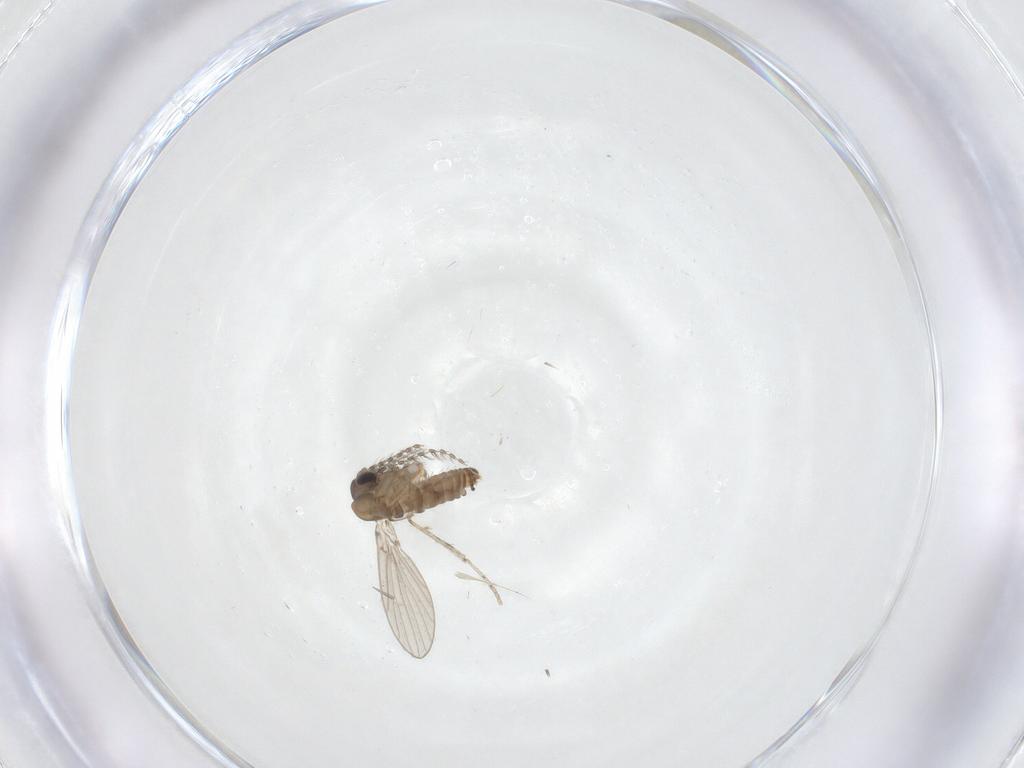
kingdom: Animalia
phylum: Arthropoda
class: Insecta
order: Diptera
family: Psychodidae
